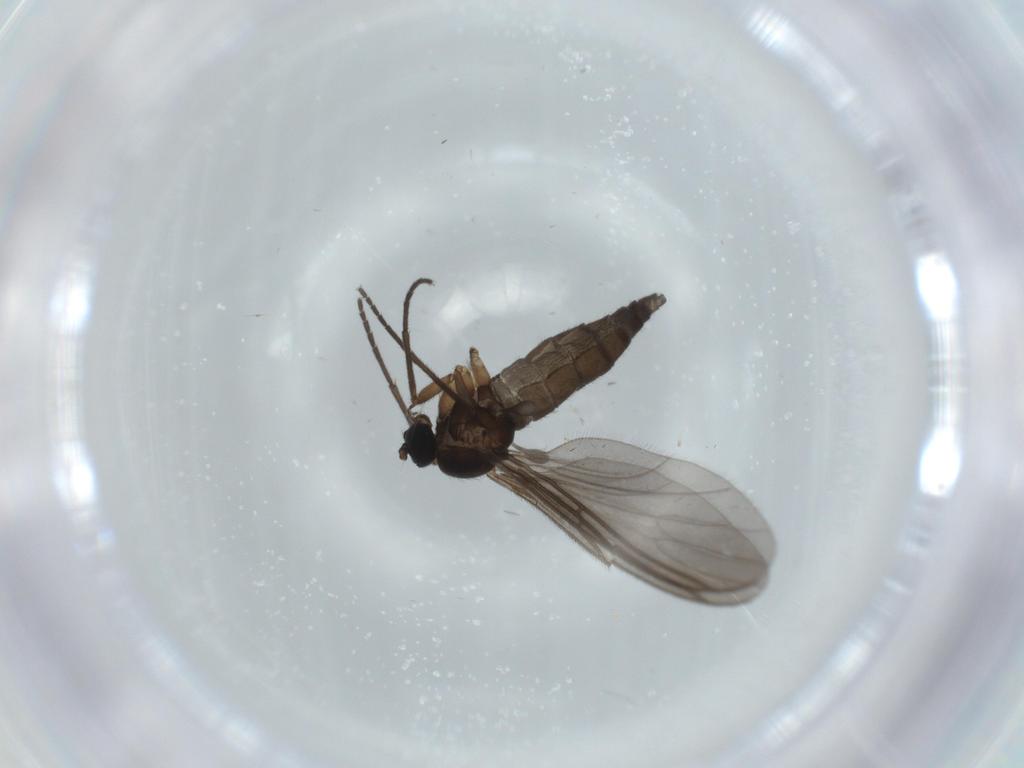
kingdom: Animalia
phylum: Arthropoda
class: Insecta
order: Diptera
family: Sciaridae
